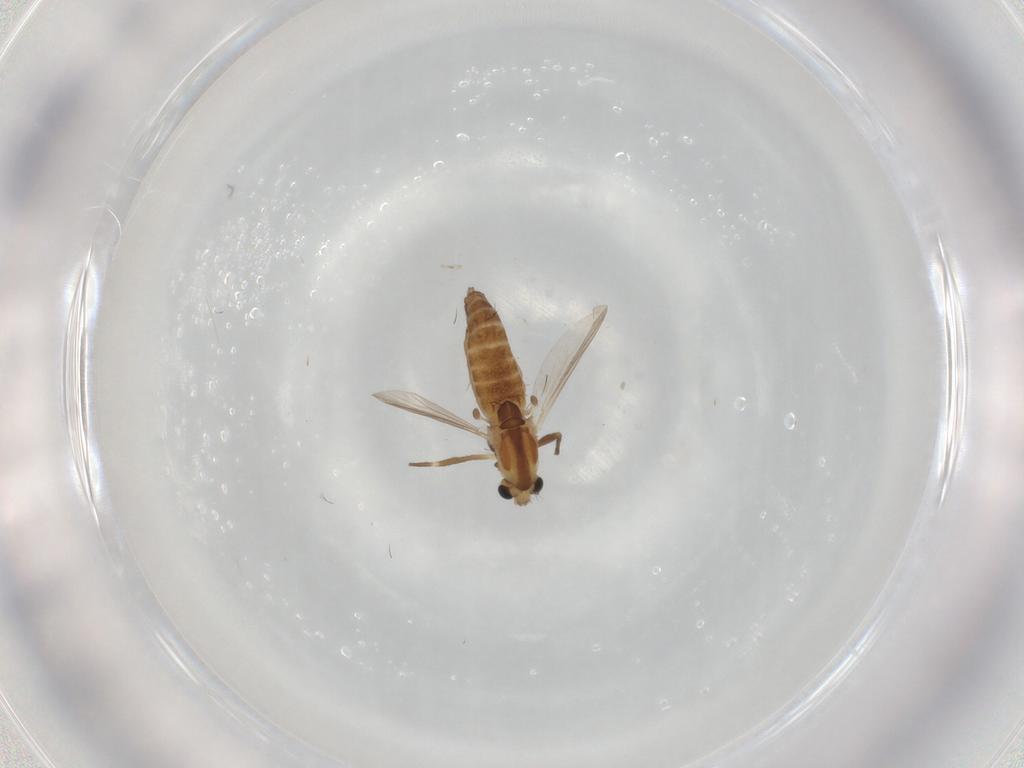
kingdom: Animalia
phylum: Arthropoda
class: Insecta
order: Diptera
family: Chironomidae
